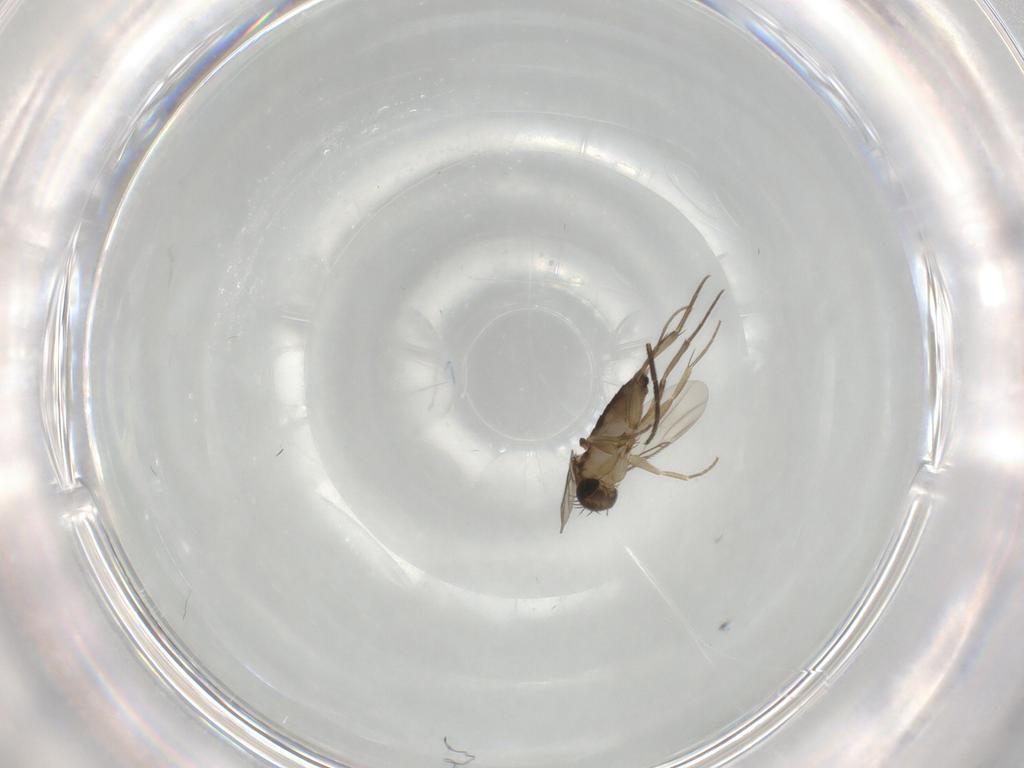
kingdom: Animalia
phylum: Arthropoda
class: Insecta
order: Diptera
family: Phoridae
